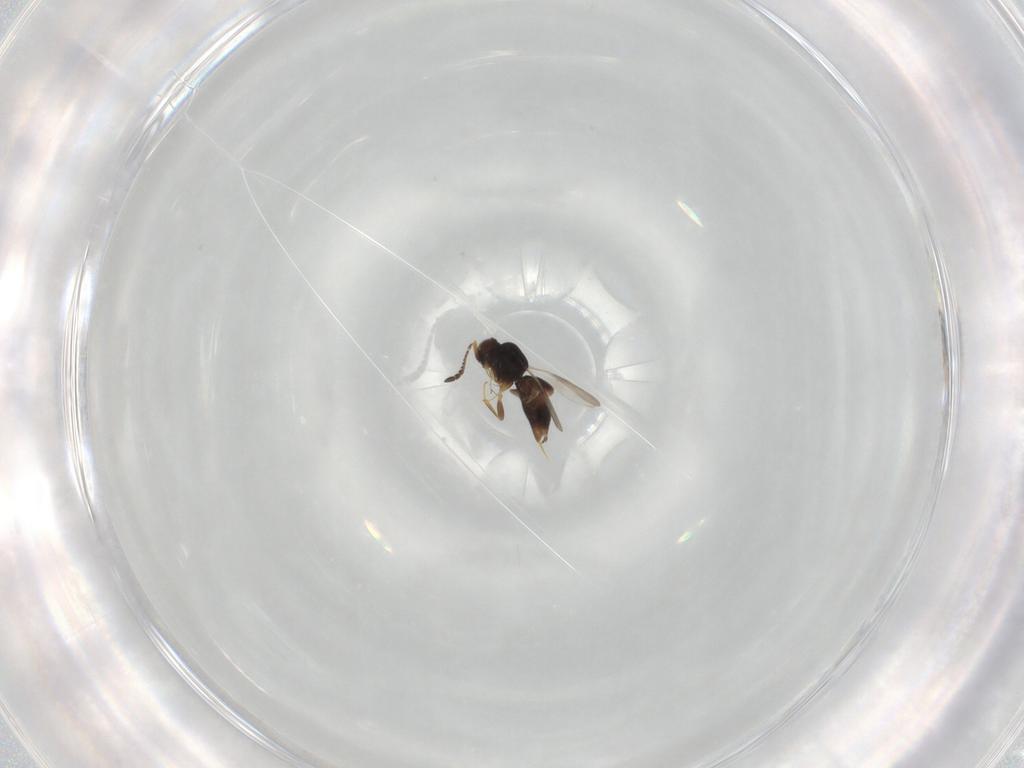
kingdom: Animalia
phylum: Arthropoda
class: Insecta
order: Hymenoptera
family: Ceraphronidae
